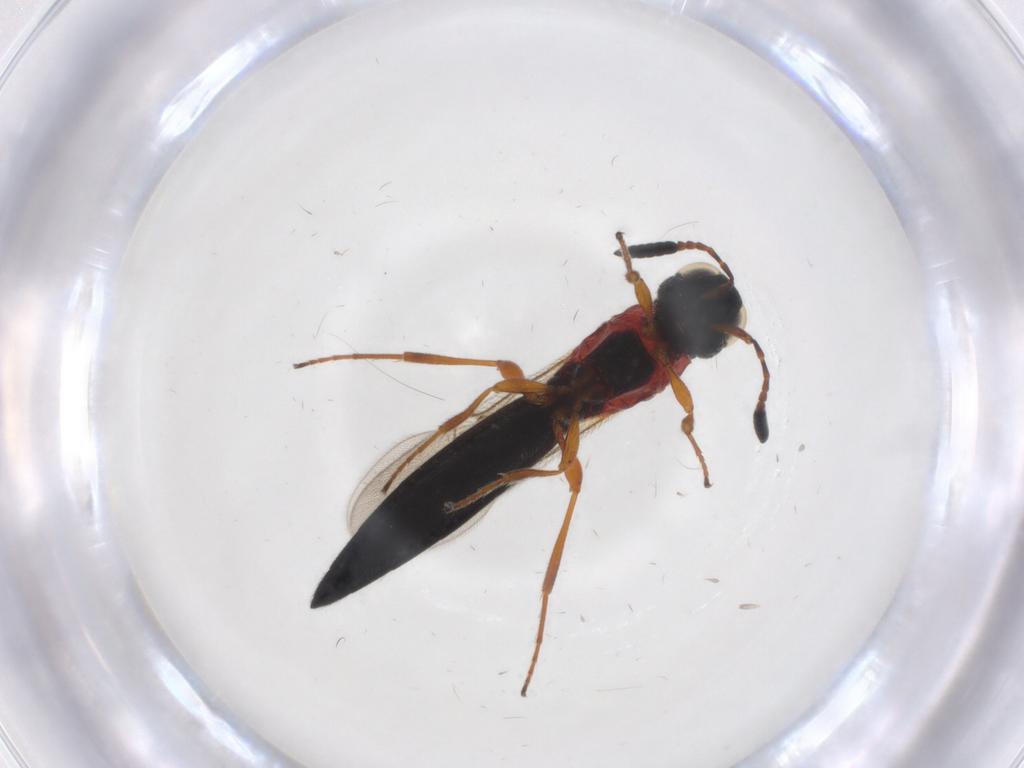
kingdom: Animalia
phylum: Arthropoda
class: Insecta
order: Hymenoptera
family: Scelionidae
